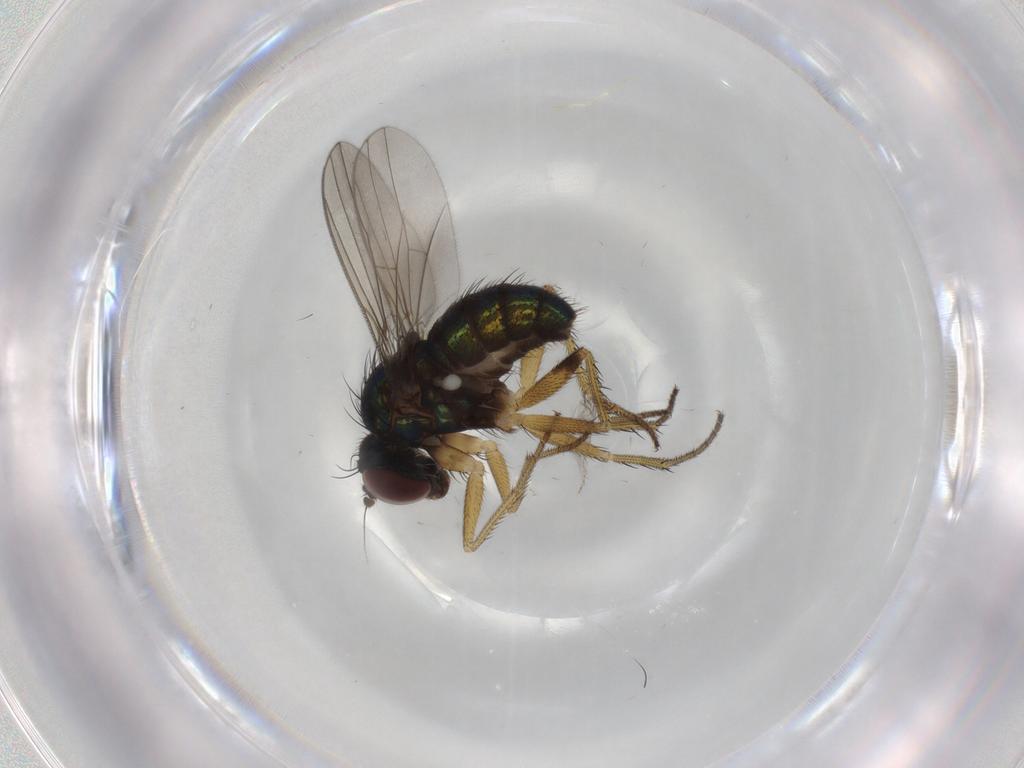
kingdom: Animalia
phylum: Arthropoda
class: Insecta
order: Diptera
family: Dolichopodidae
